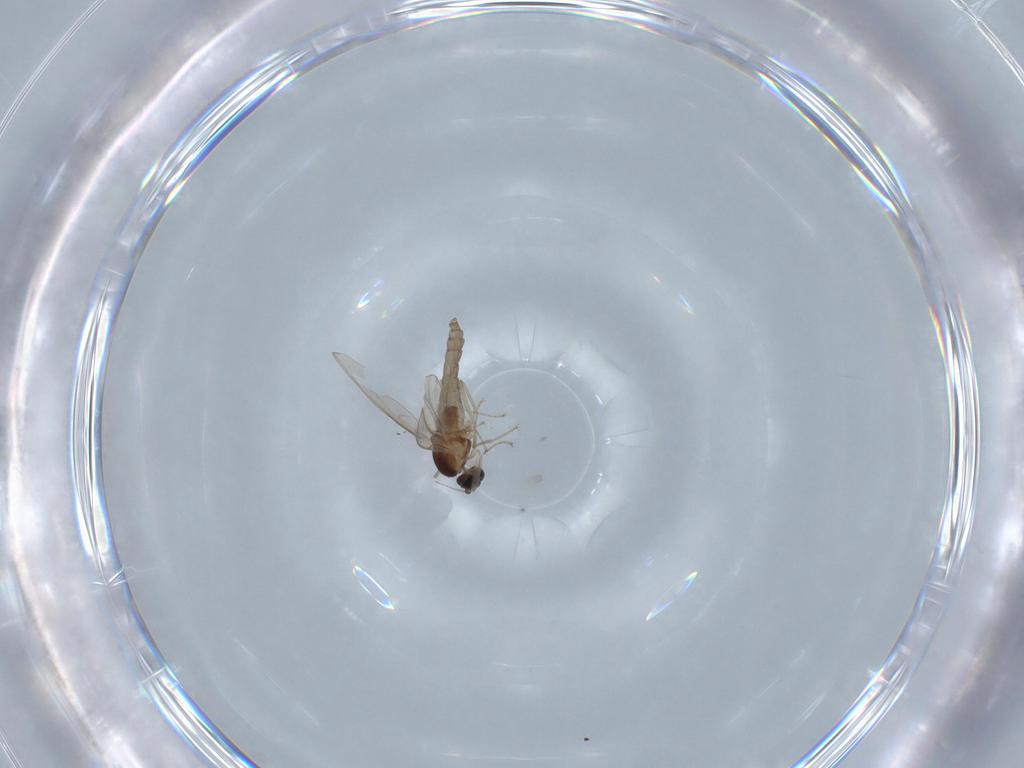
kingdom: Animalia
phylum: Arthropoda
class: Insecta
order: Diptera
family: Cecidomyiidae
